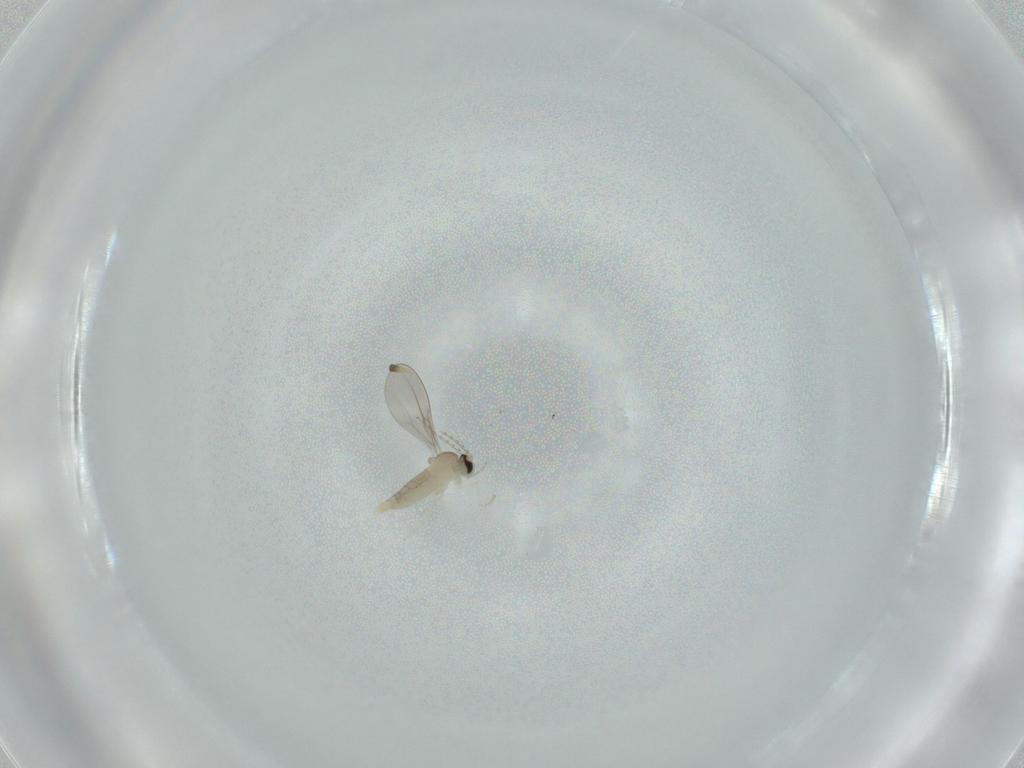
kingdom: Animalia
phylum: Arthropoda
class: Insecta
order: Diptera
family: Cecidomyiidae
